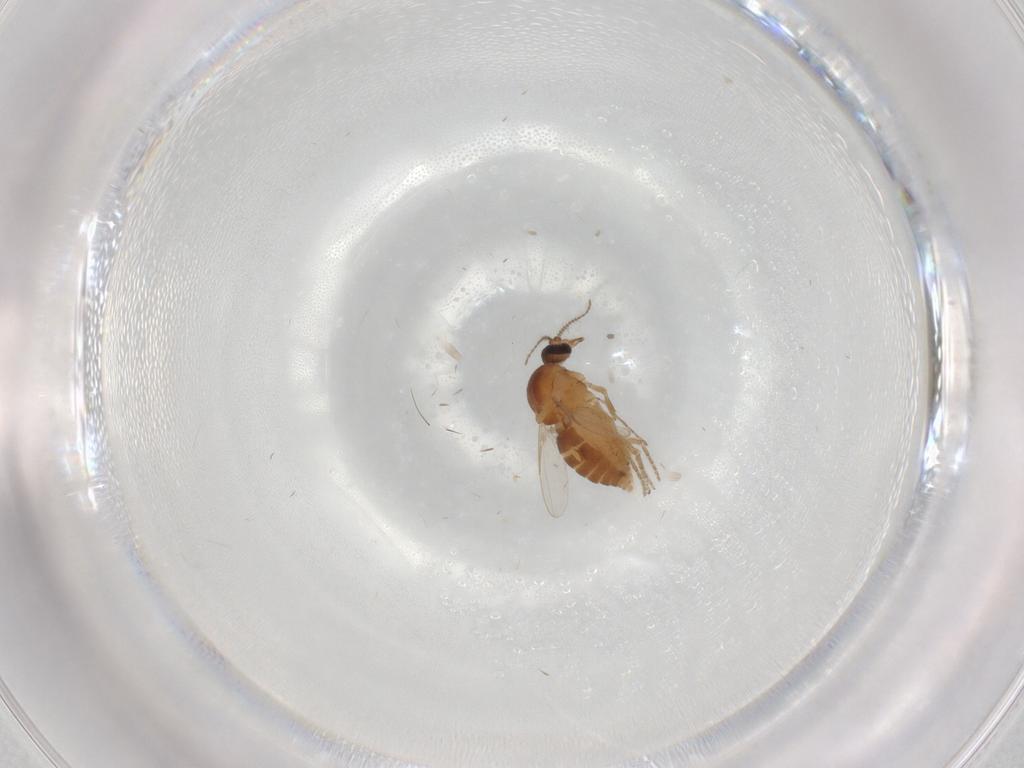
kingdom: Animalia
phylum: Arthropoda
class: Insecta
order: Diptera
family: Ceratopogonidae
